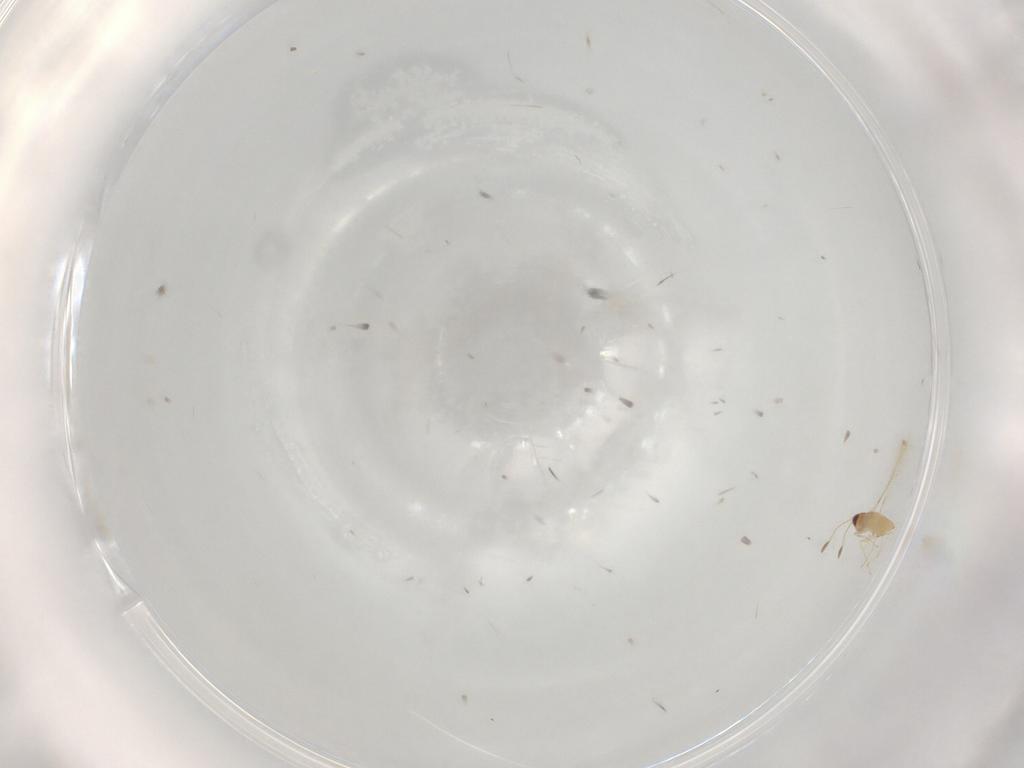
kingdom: Animalia
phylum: Arthropoda
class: Insecta
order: Hymenoptera
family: Mymaridae
